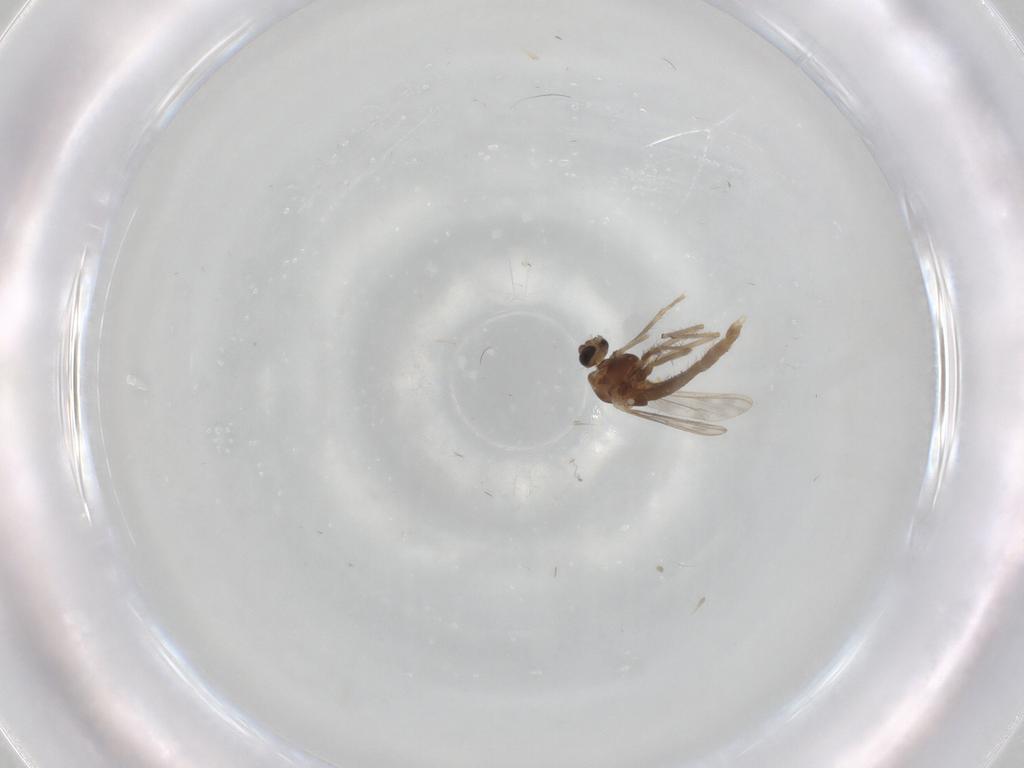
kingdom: Animalia
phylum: Arthropoda
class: Insecta
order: Diptera
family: Chironomidae
